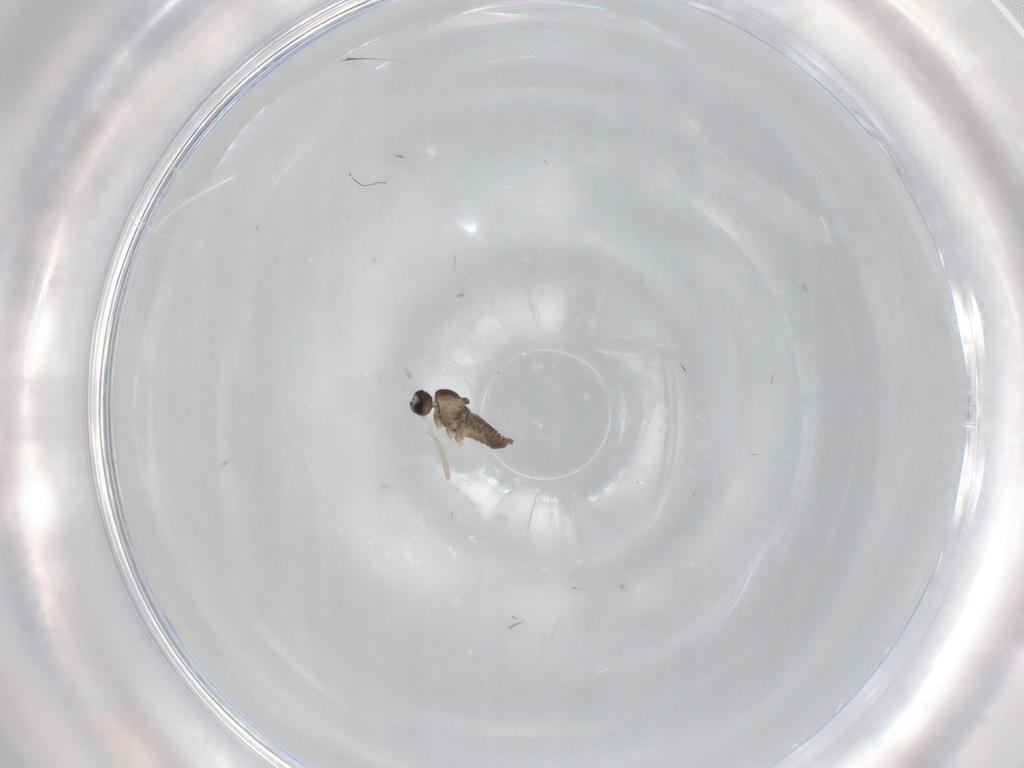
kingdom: Animalia
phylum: Arthropoda
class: Insecta
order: Diptera
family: Cecidomyiidae
